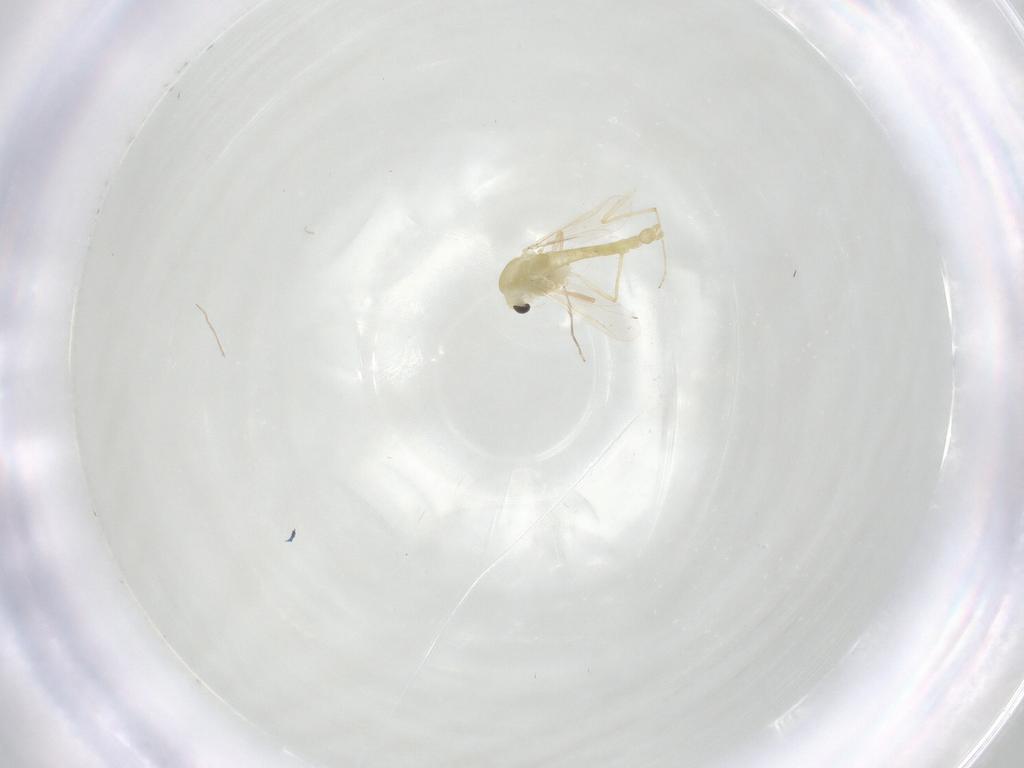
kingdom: Animalia
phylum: Arthropoda
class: Insecta
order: Diptera
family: Chironomidae
